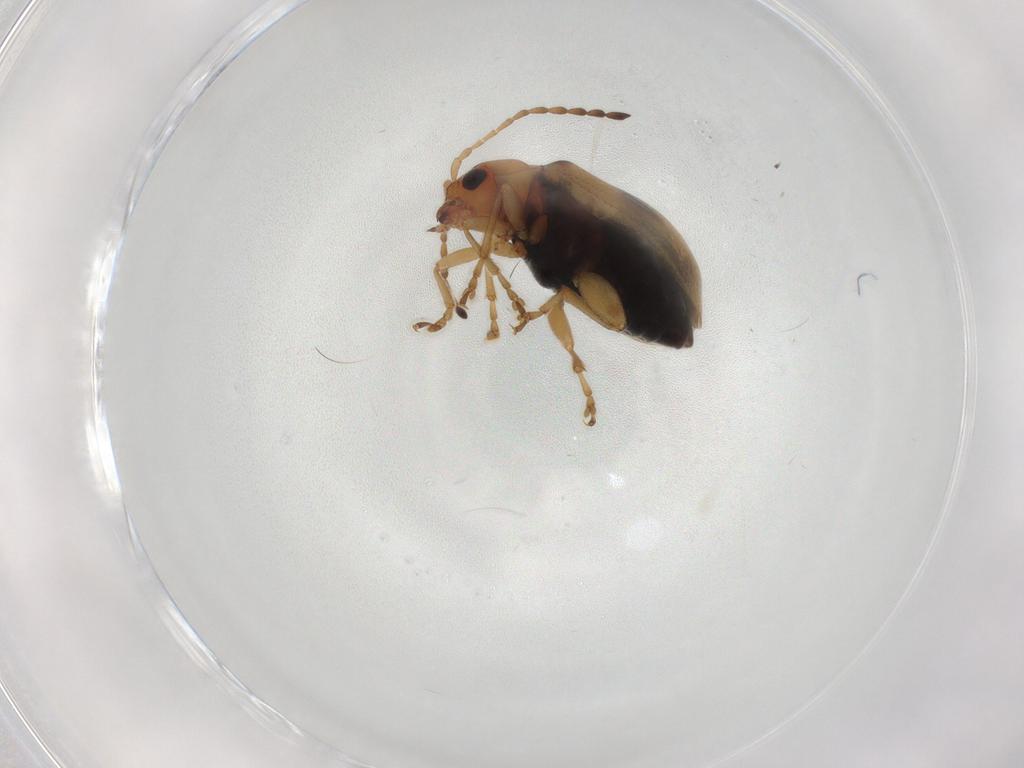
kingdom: Animalia
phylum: Arthropoda
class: Insecta
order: Coleoptera
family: Chrysomelidae
